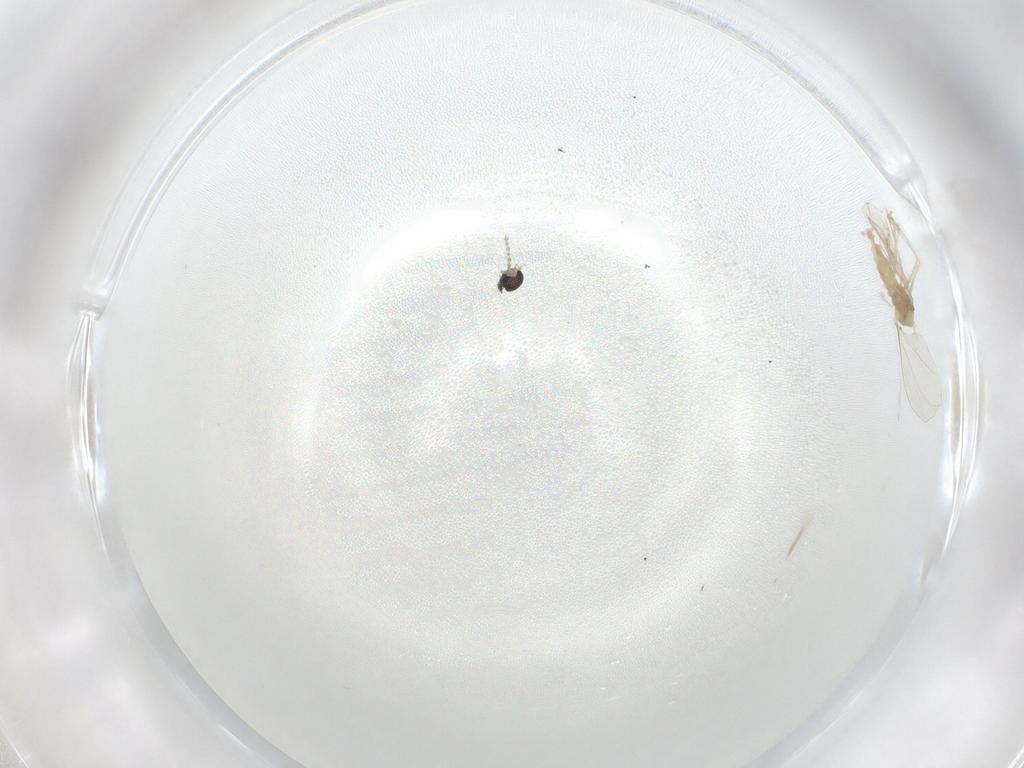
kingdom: Animalia
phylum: Arthropoda
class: Insecta
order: Diptera
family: Cecidomyiidae
